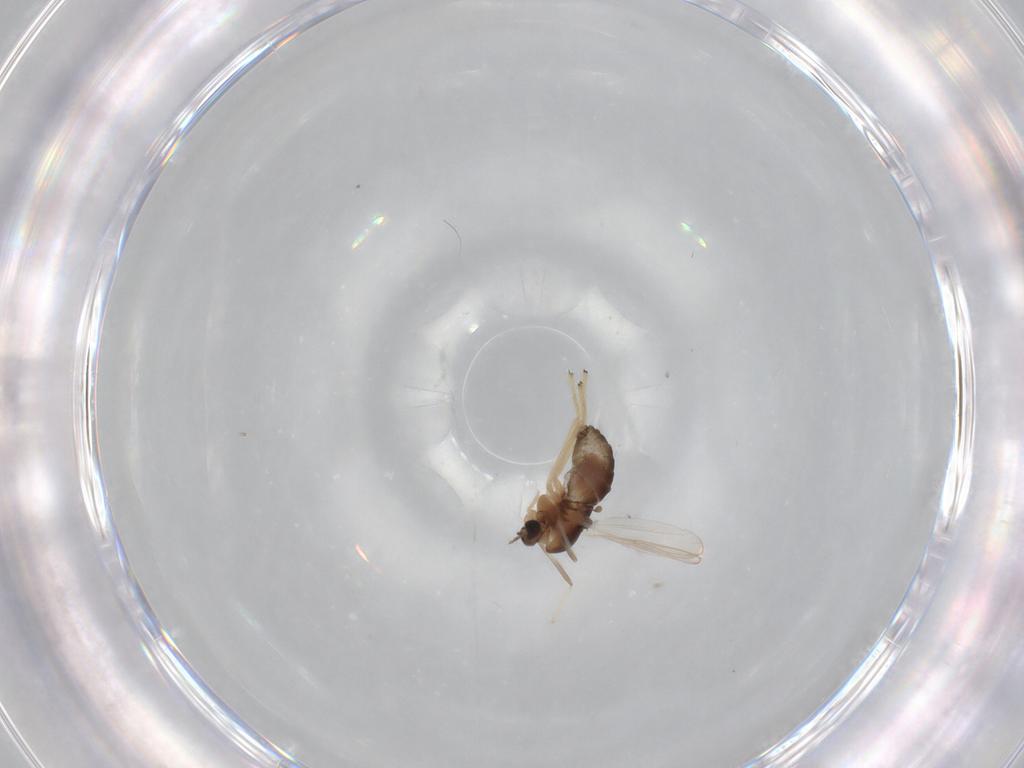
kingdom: Animalia
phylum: Arthropoda
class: Insecta
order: Diptera
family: Chironomidae
